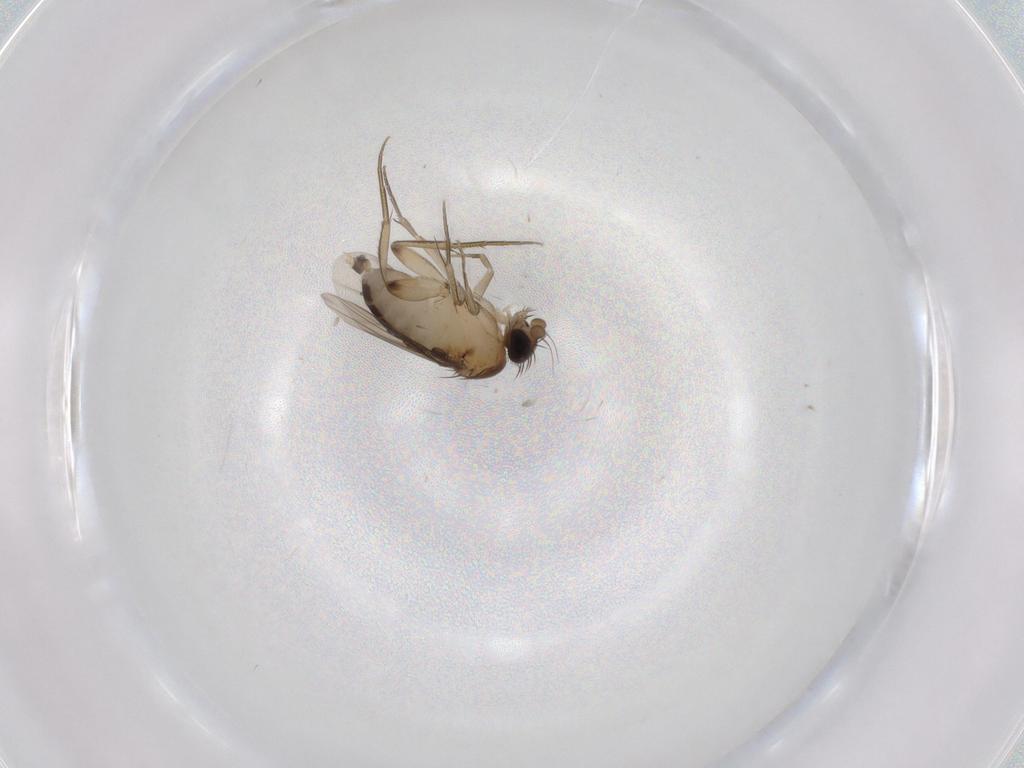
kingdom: Animalia
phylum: Arthropoda
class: Insecta
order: Diptera
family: Phoridae
